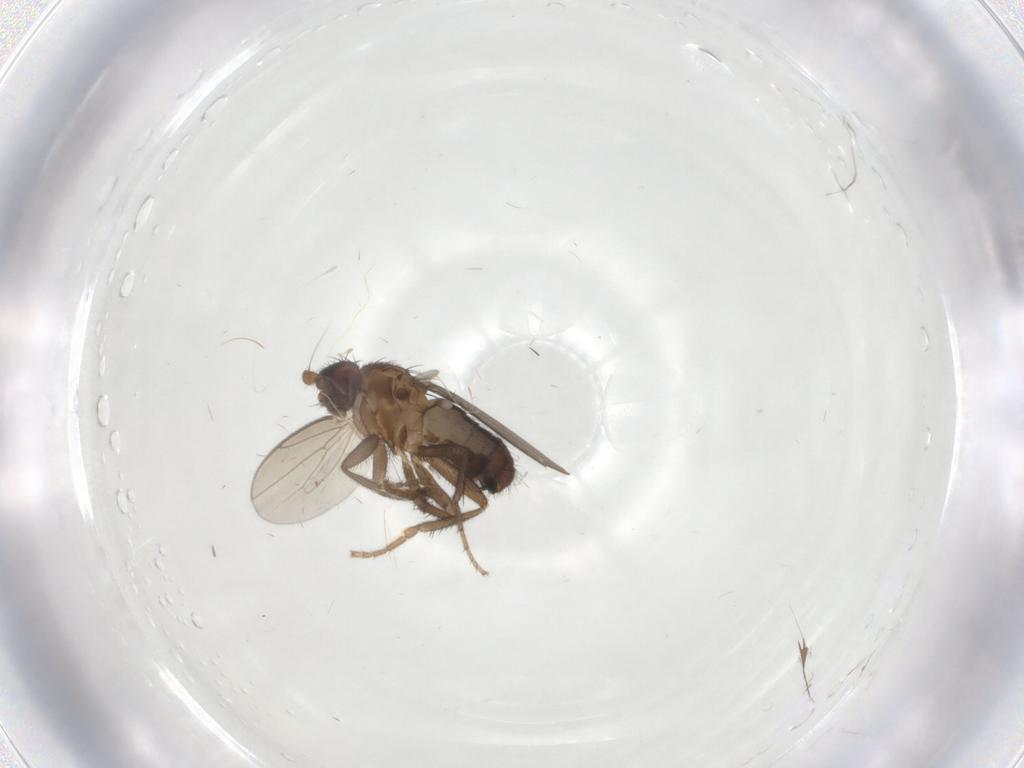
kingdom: Animalia
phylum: Arthropoda
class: Insecta
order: Diptera
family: Sphaeroceridae
